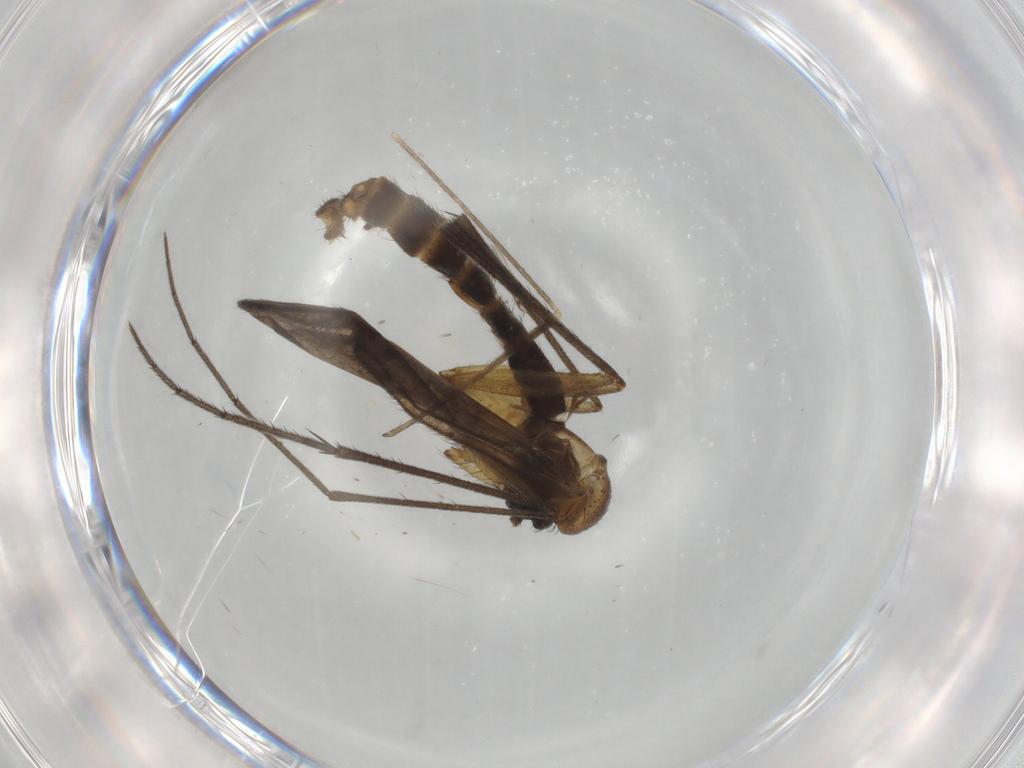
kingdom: Animalia
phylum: Arthropoda
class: Insecta
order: Diptera
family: Ditomyiidae
